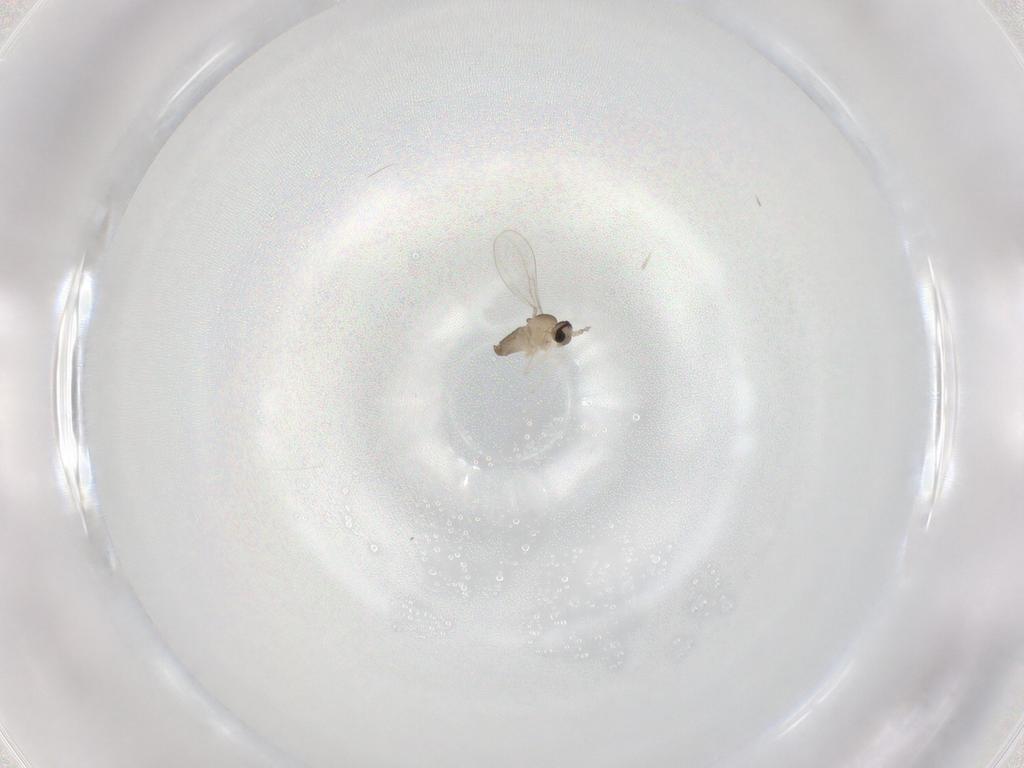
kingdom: Animalia
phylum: Arthropoda
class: Insecta
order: Diptera
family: Cecidomyiidae
